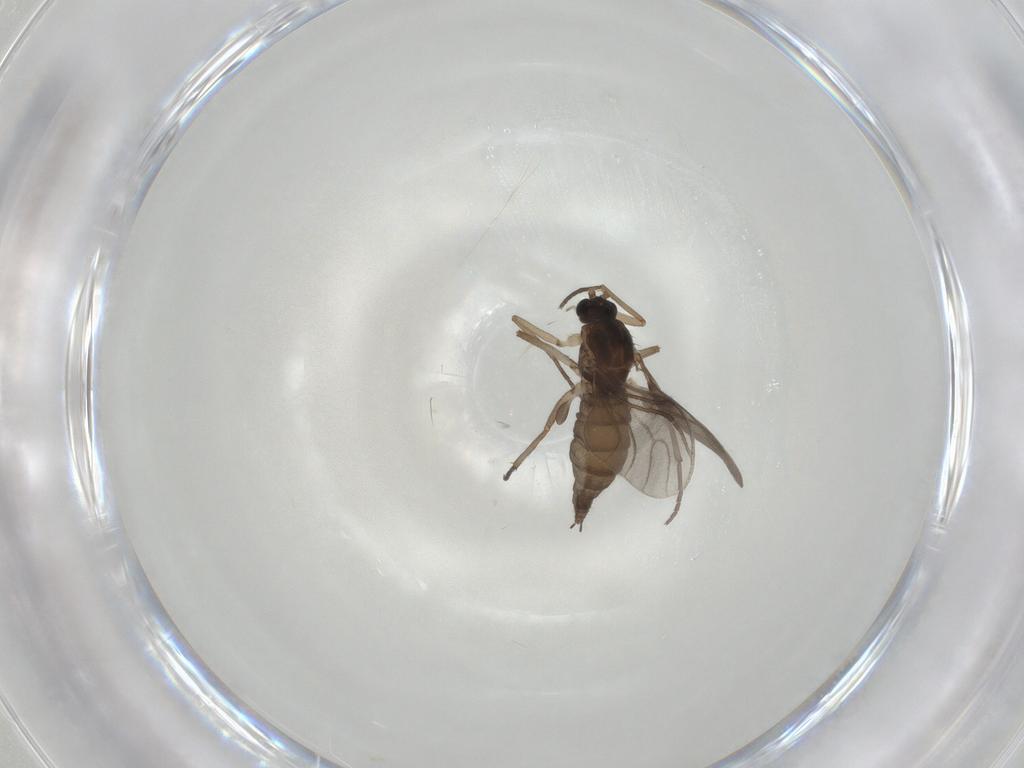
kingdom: Animalia
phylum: Arthropoda
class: Insecta
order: Diptera
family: Sciaridae
